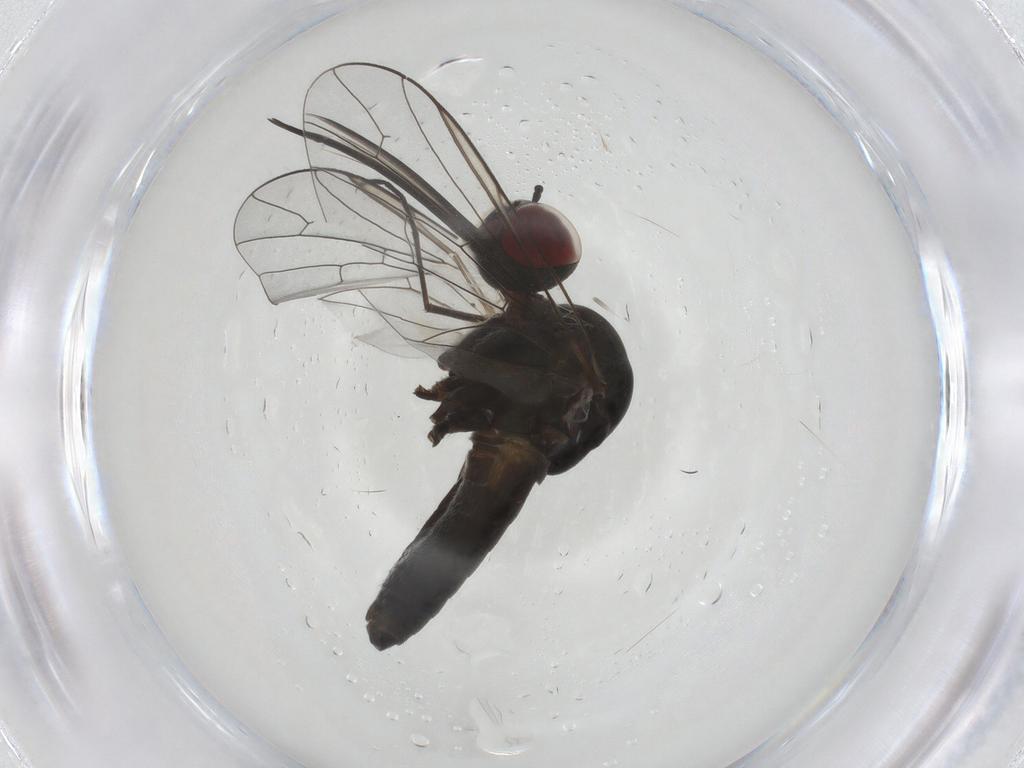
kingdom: Animalia
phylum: Arthropoda
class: Insecta
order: Diptera
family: Bombyliidae
